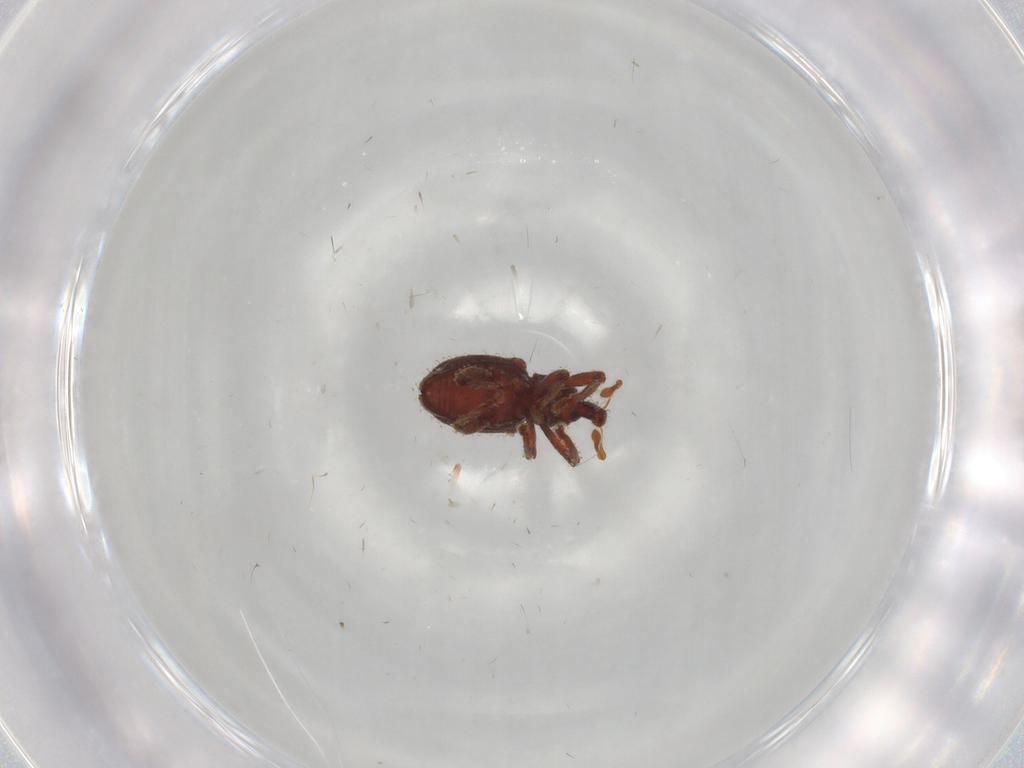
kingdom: Animalia
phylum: Arthropoda
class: Insecta
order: Coleoptera
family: Curculionidae
